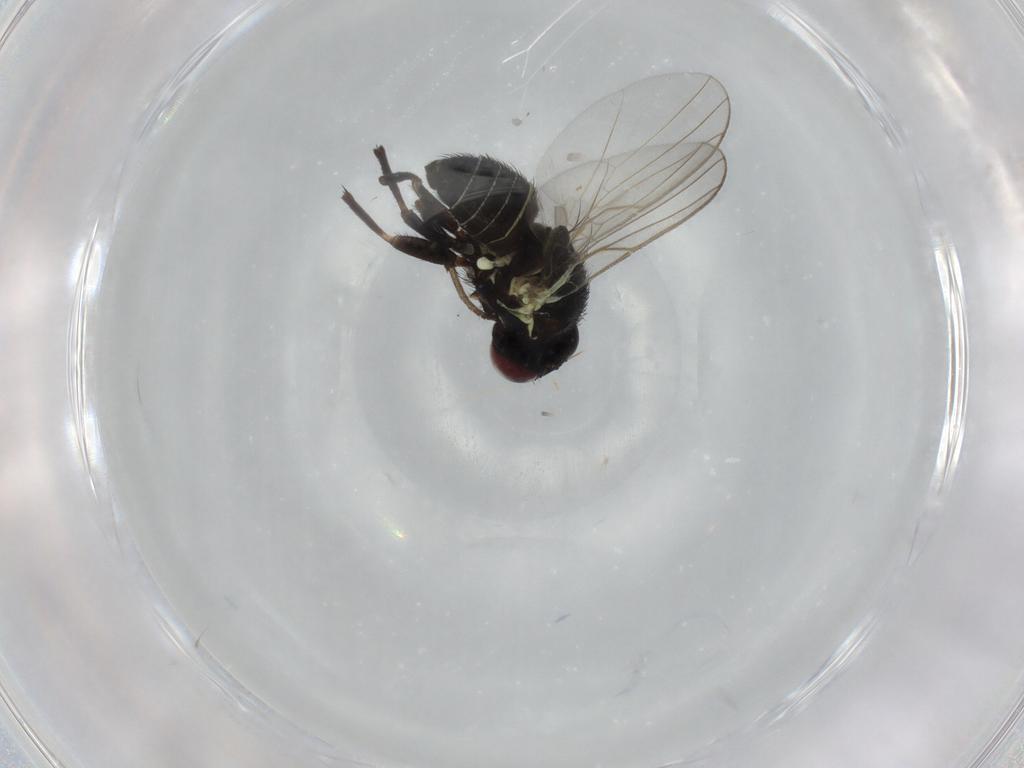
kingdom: Animalia
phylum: Arthropoda
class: Insecta
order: Diptera
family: Agromyzidae
